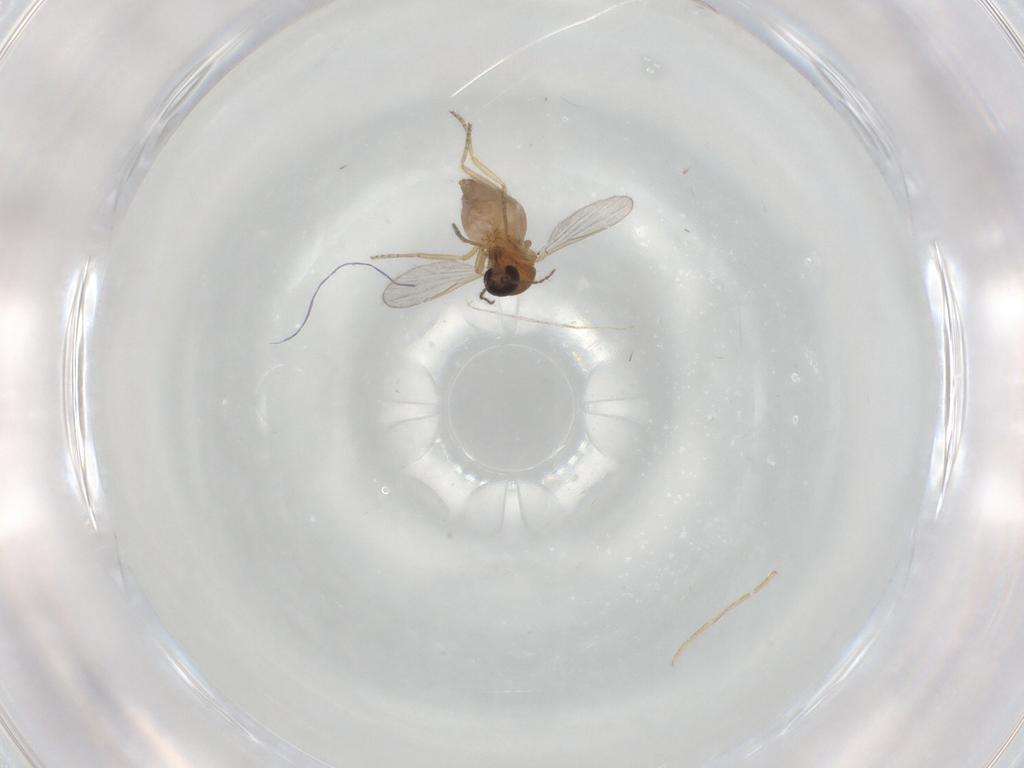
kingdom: Animalia
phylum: Arthropoda
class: Insecta
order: Diptera
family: Ceratopogonidae
